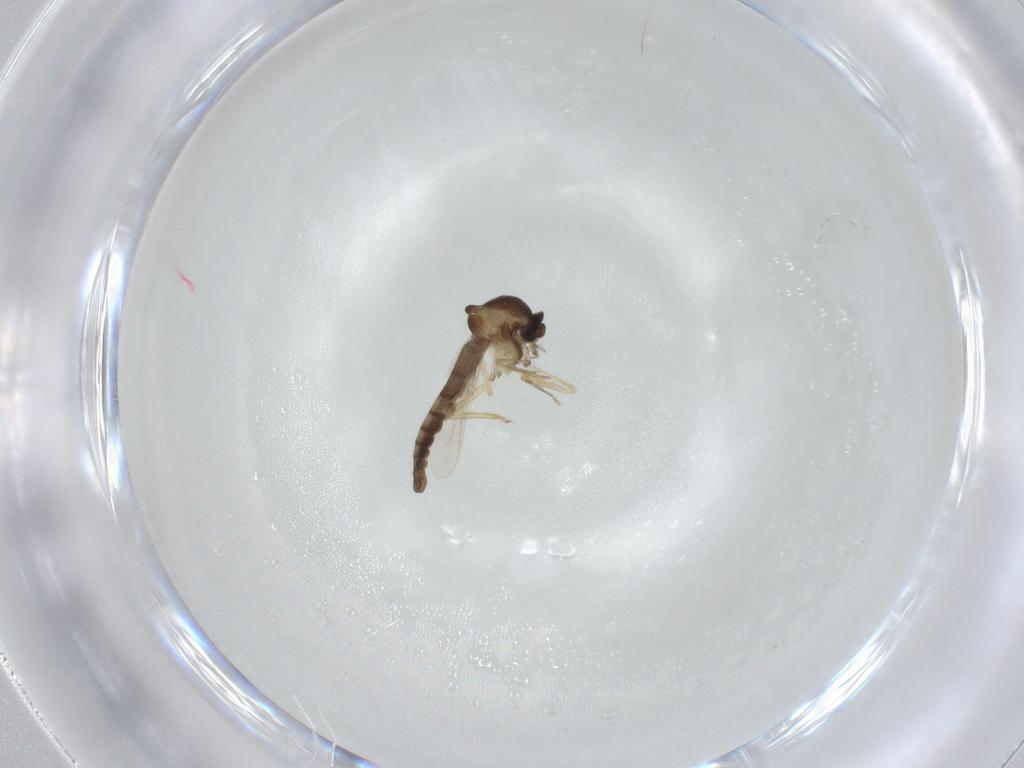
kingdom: Animalia
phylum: Arthropoda
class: Insecta
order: Diptera
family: Ceratopogonidae
